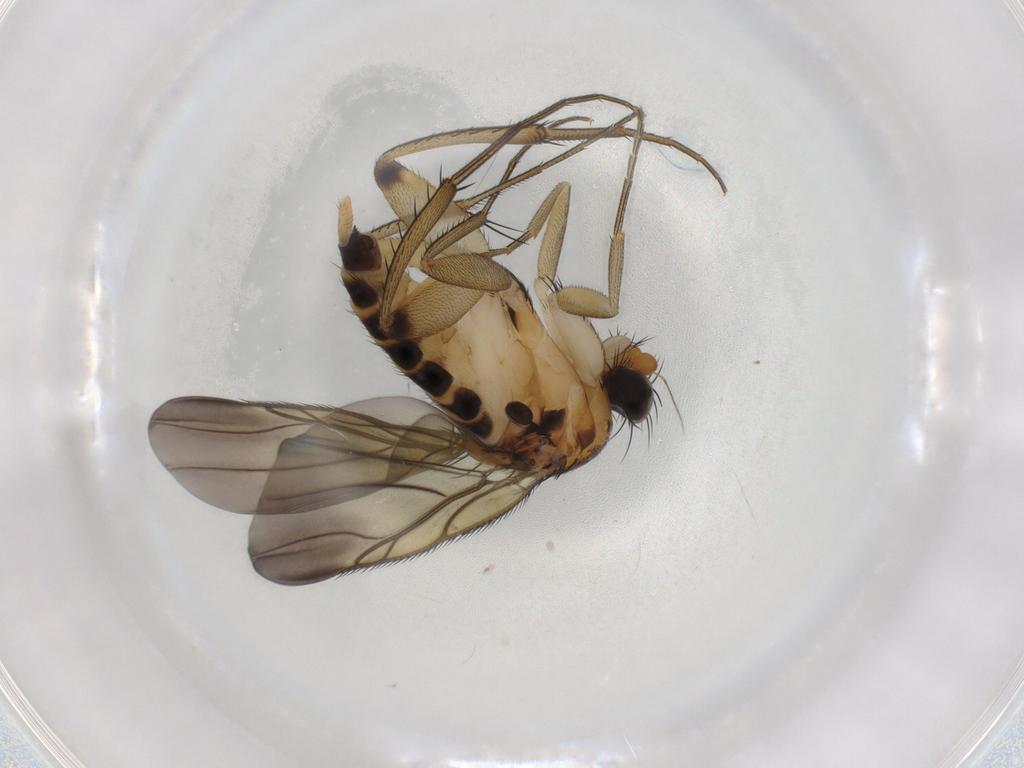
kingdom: Animalia
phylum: Arthropoda
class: Insecta
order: Diptera
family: Phoridae
